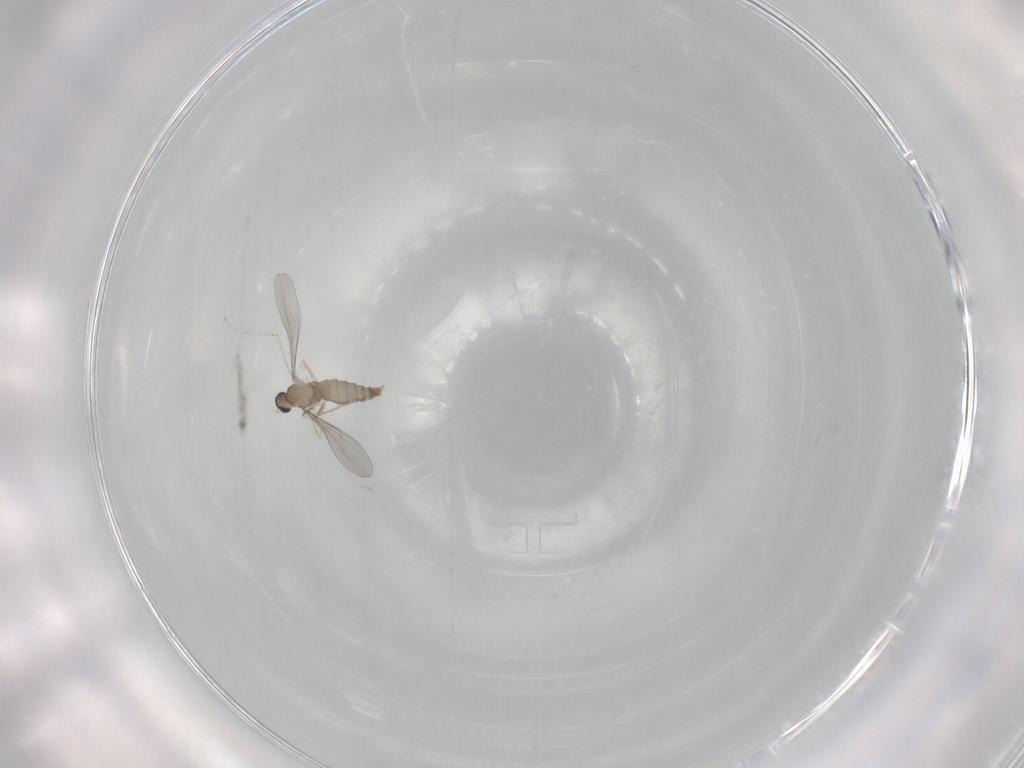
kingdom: Animalia
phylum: Arthropoda
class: Insecta
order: Diptera
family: Cecidomyiidae
